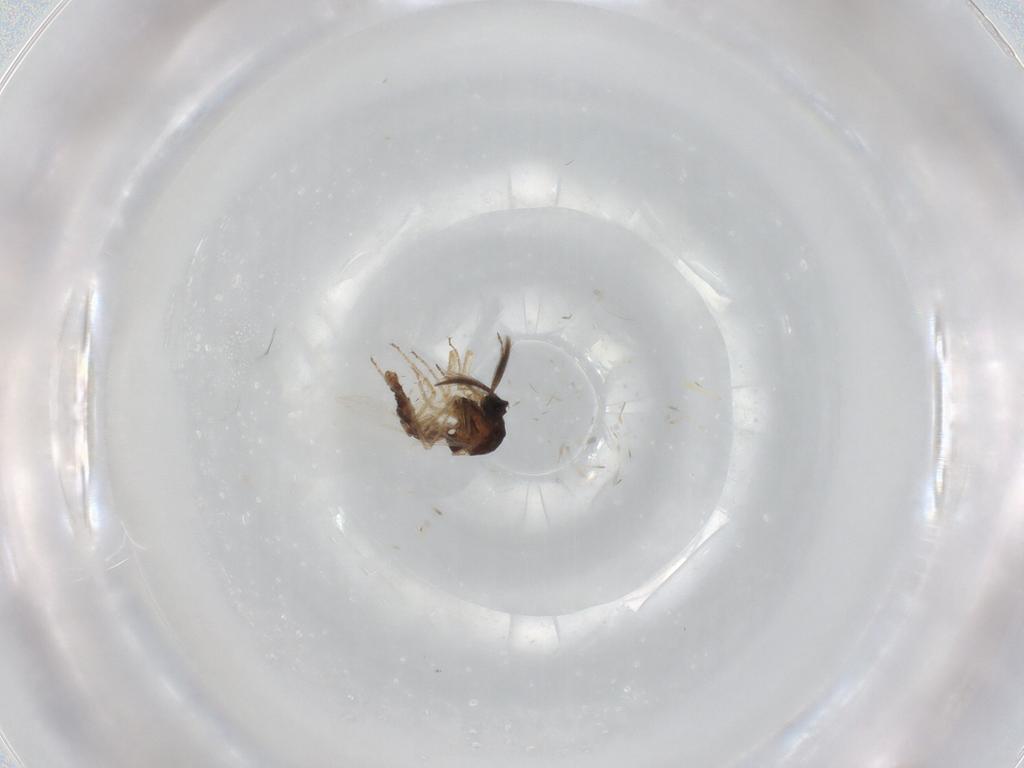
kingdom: Animalia
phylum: Arthropoda
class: Insecta
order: Diptera
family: Ceratopogonidae
